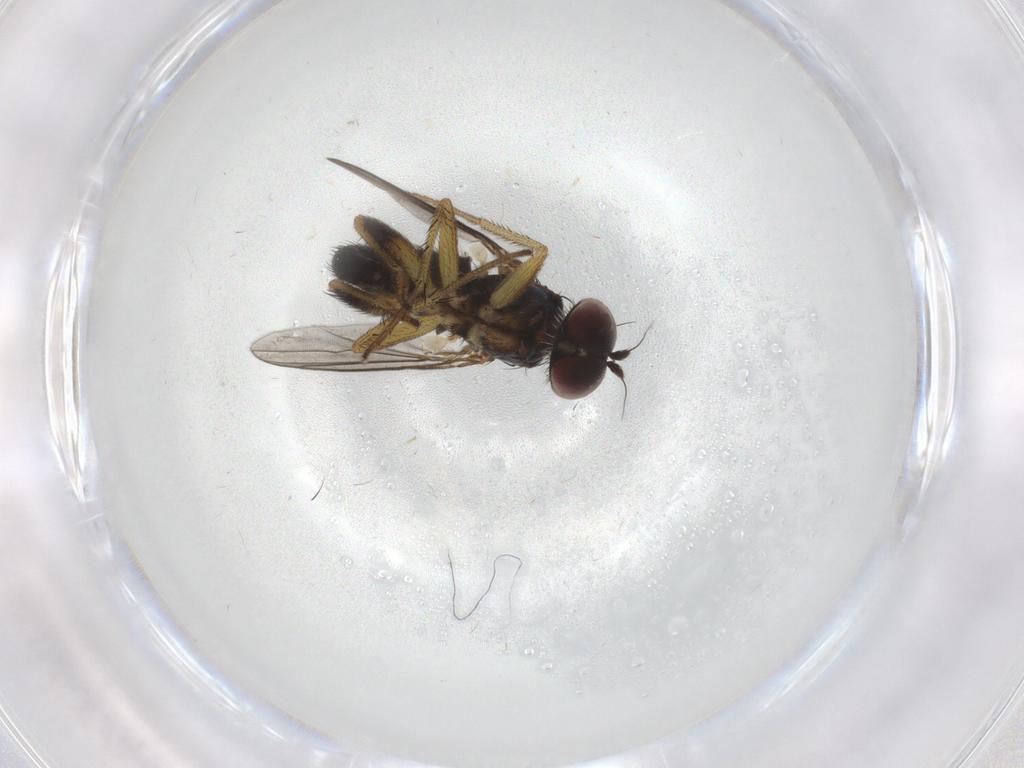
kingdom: Animalia
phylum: Arthropoda
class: Insecta
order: Diptera
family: Dolichopodidae
